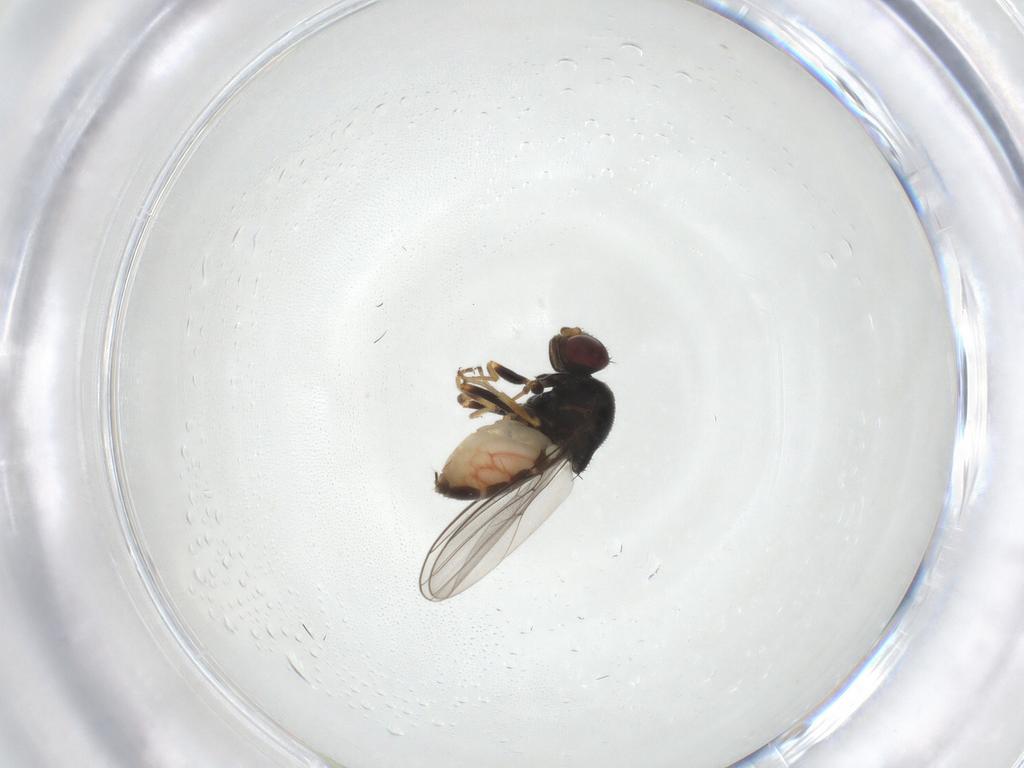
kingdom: Animalia
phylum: Arthropoda
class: Insecta
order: Diptera
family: Chloropidae
